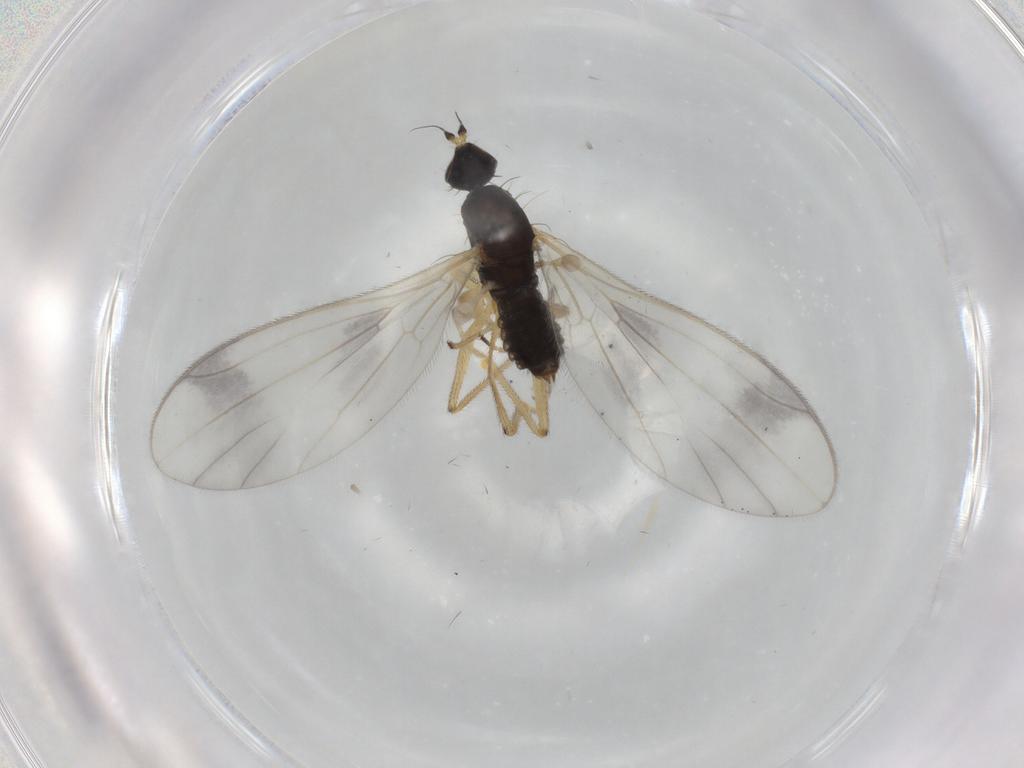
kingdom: Animalia
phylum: Arthropoda
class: Insecta
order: Diptera
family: Empididae
